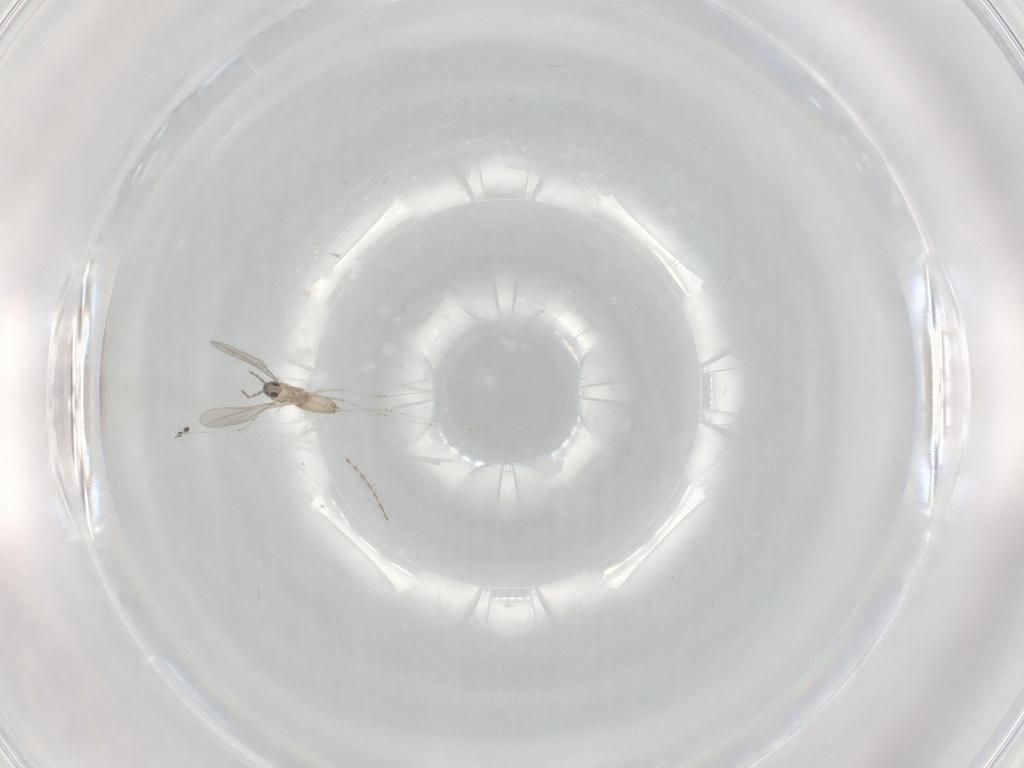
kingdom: Animalia
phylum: Arthropoda
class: Insecta
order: Diptera
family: Cecidomyiidae
